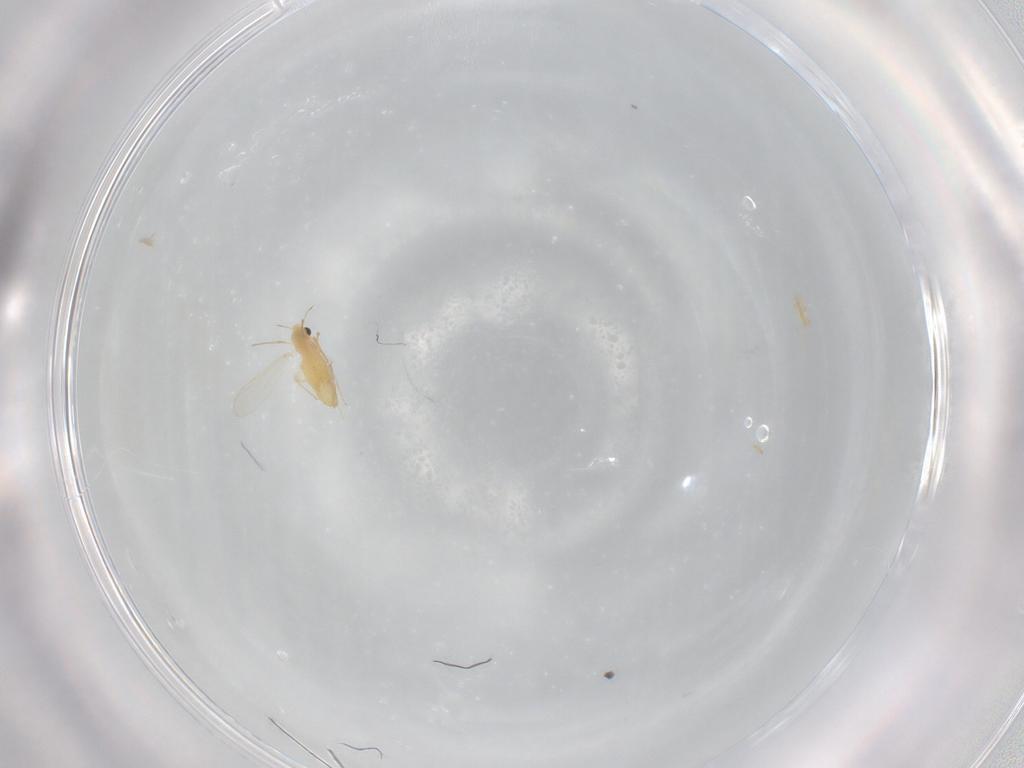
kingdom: Animalia
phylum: Arthropoda
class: Insecta
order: Diptera
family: Chironomidae
